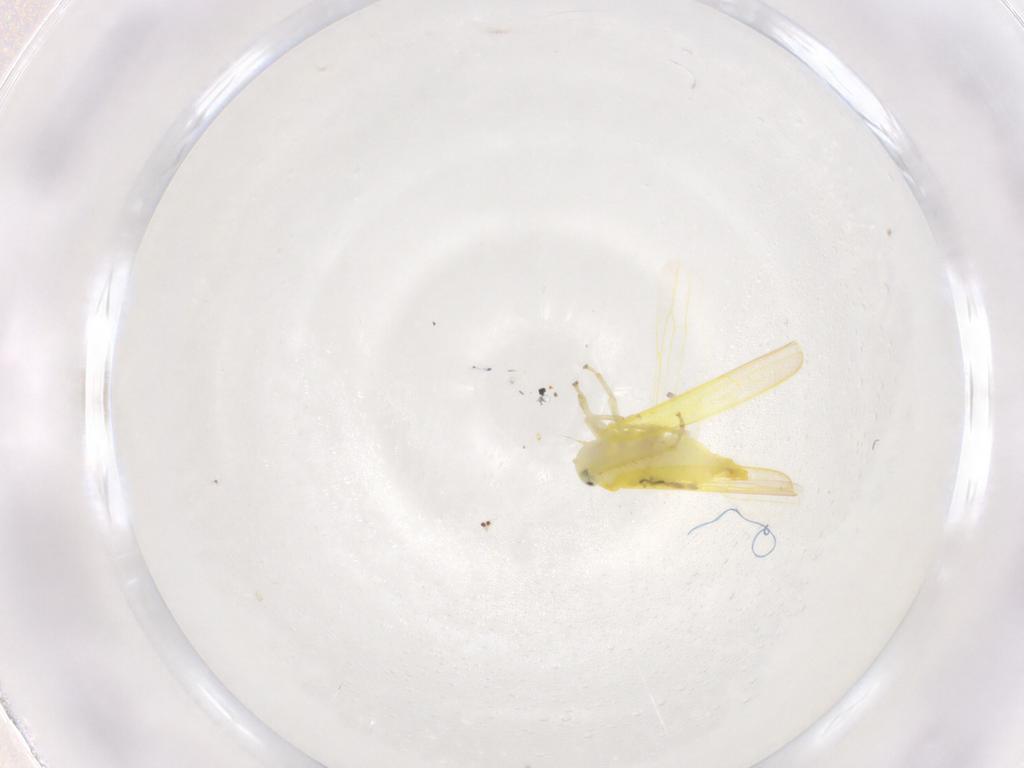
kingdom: Animalia
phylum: Arthropoda
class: Insecta
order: Hemiptera
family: Cicadellidae
